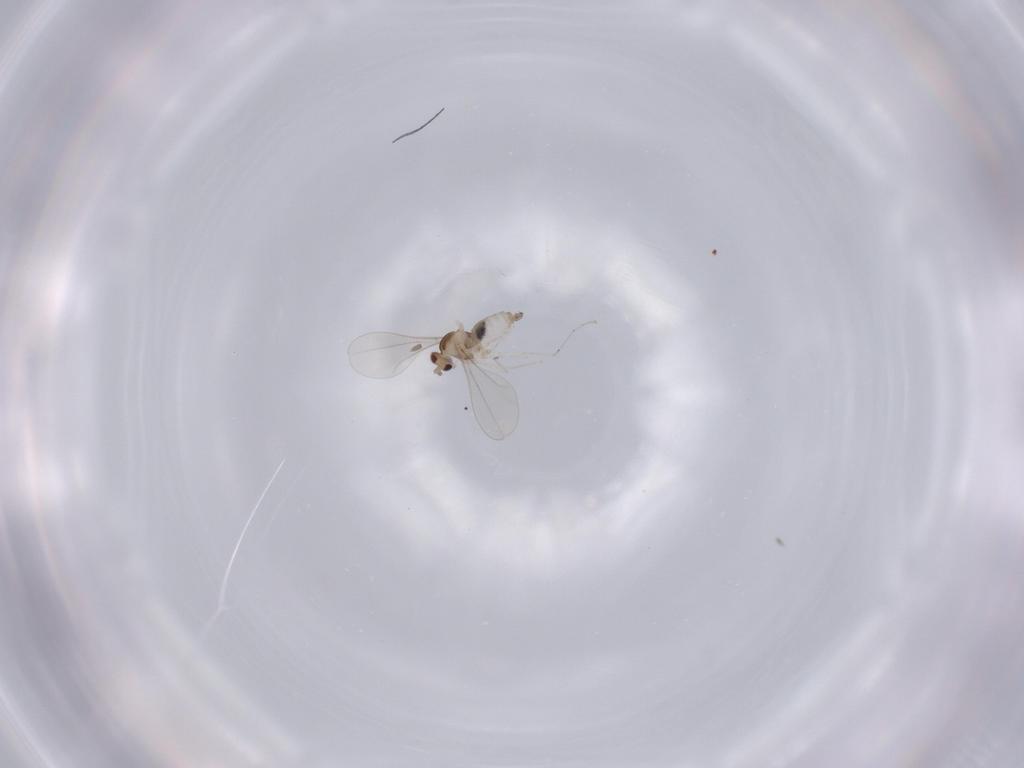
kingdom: Animalia
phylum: Arthropoda
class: Insecta
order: Diptera
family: Cecidomyiidae
